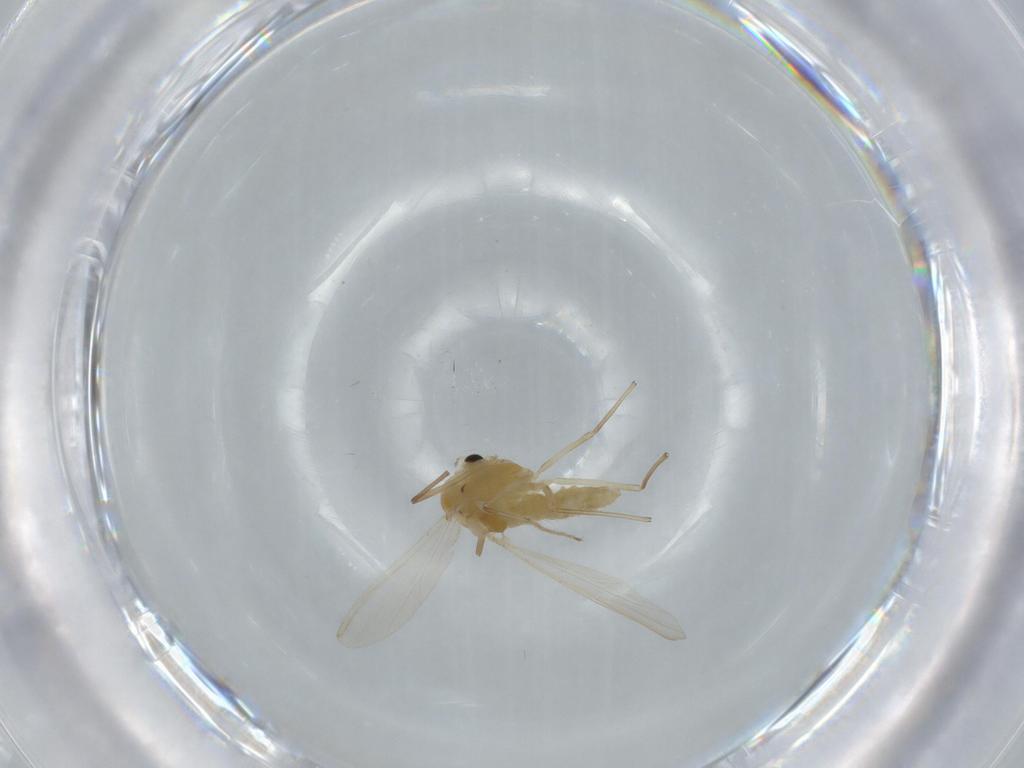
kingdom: Animalia
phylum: Arthropoda
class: Insecta
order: Diptera
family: Chironomidae
